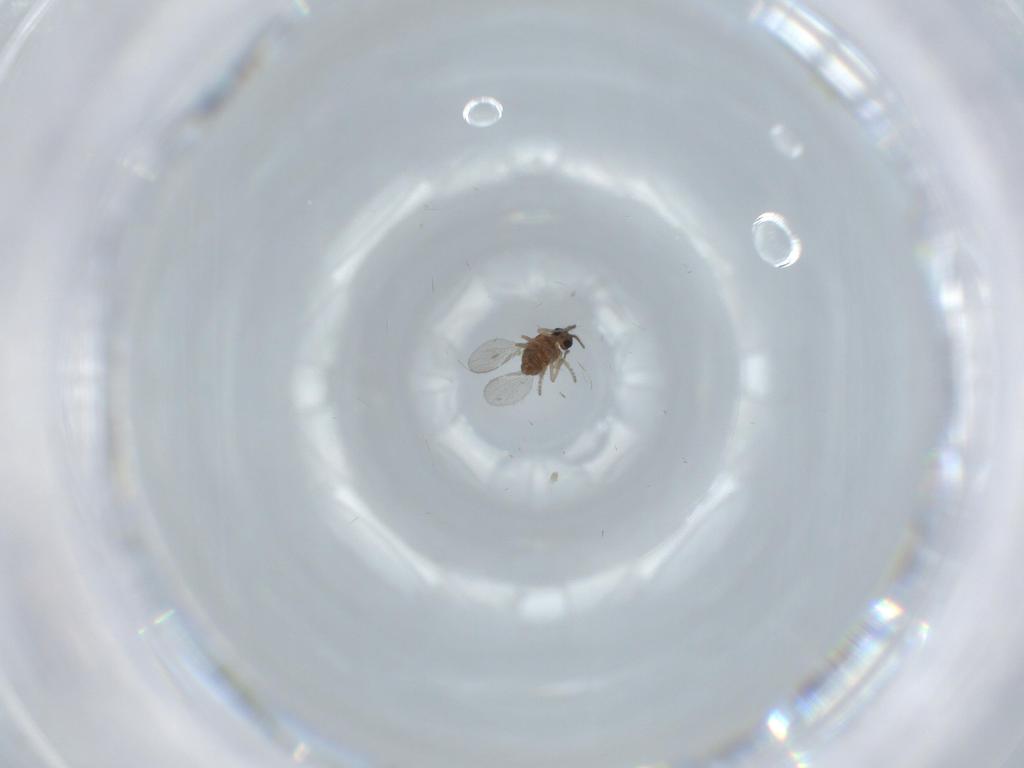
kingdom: Animalia
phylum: Arthropoda
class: Insecta
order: Diptera
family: Ceratopogonidae
